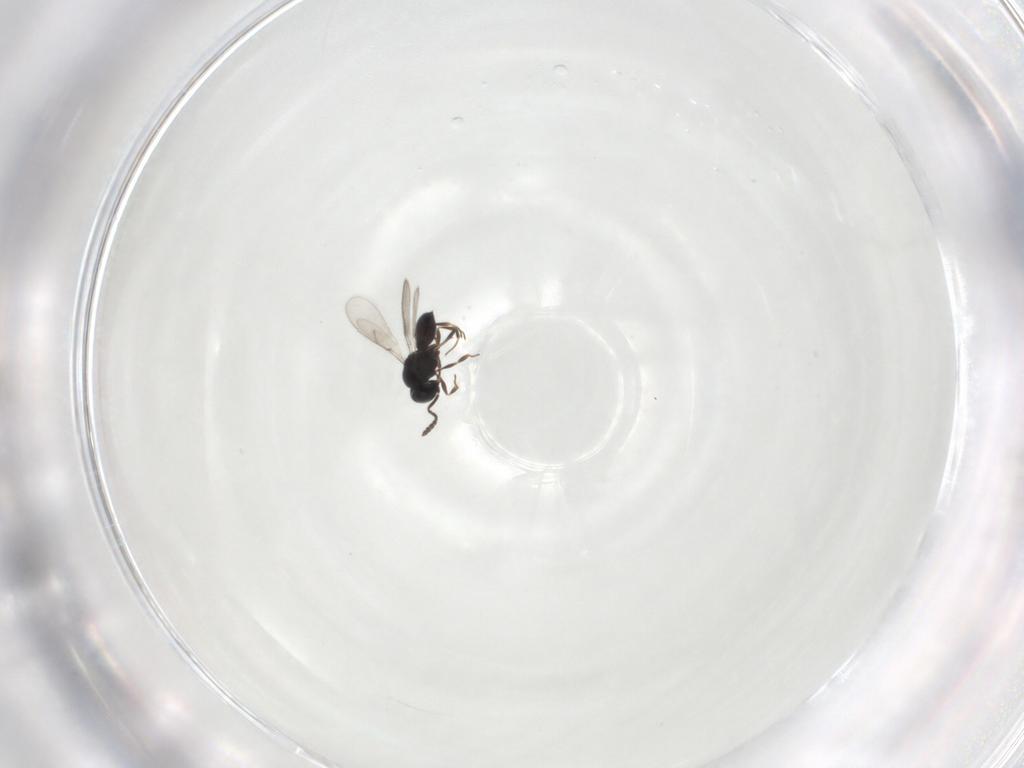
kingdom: Animalia
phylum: Arthropoda
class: Insecta
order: Hymenoptera
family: Scelionidae
